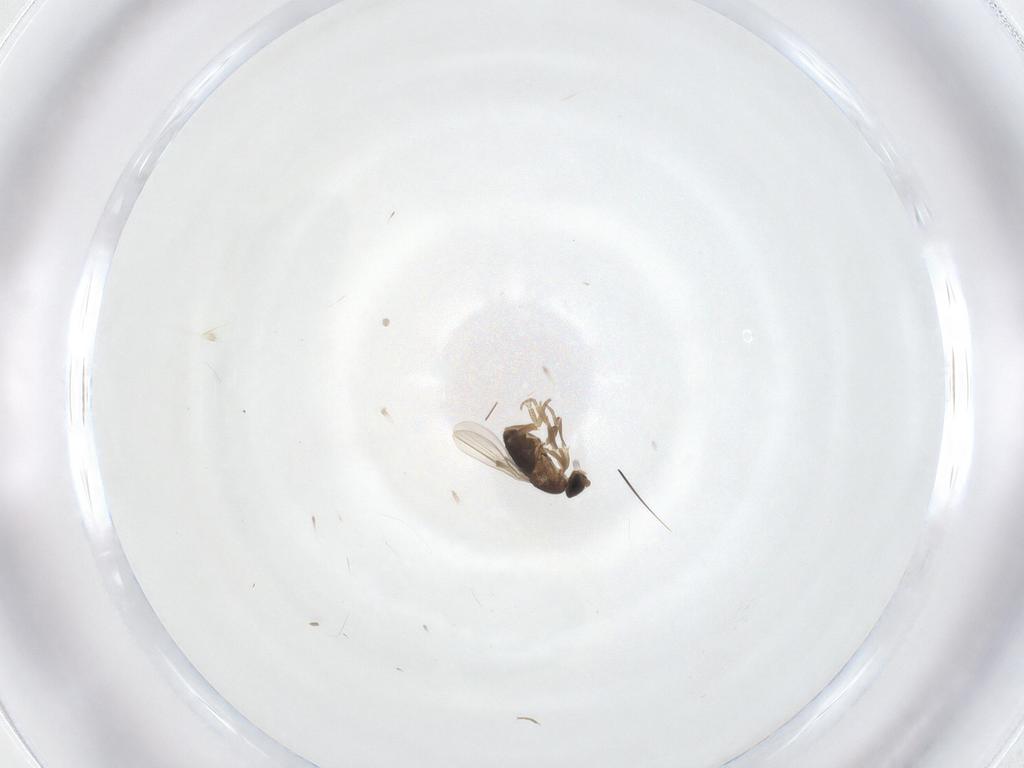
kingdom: Animalia
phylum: Arthropoda
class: Insecta
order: Diptera
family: Phoridae
